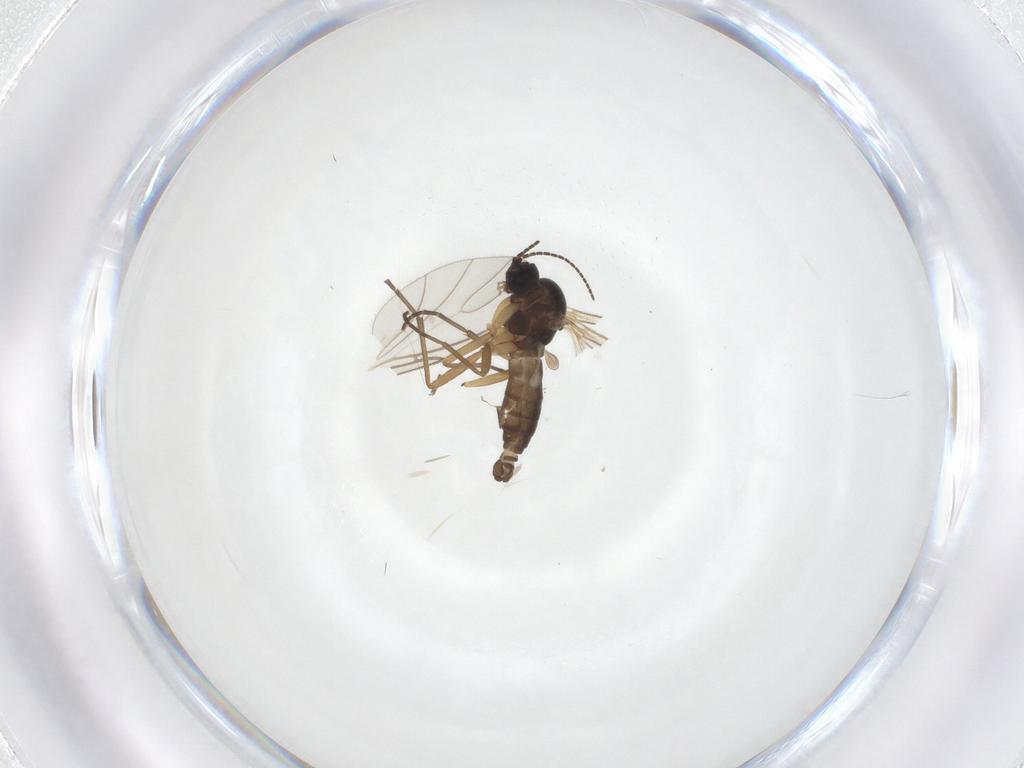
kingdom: Animalia
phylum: Arthropoda
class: Insecta
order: Diptera
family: Sciaridae
